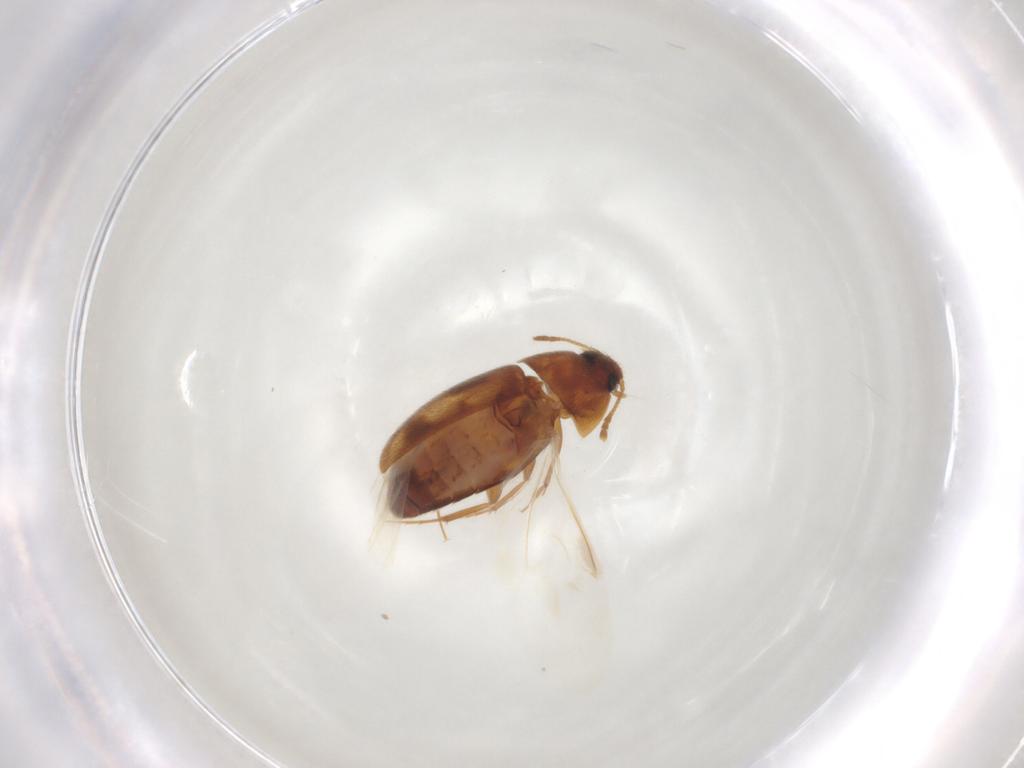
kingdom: Animalia
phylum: Arthropoda
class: Insecta
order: Coleoptera
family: Mycetophagidae
